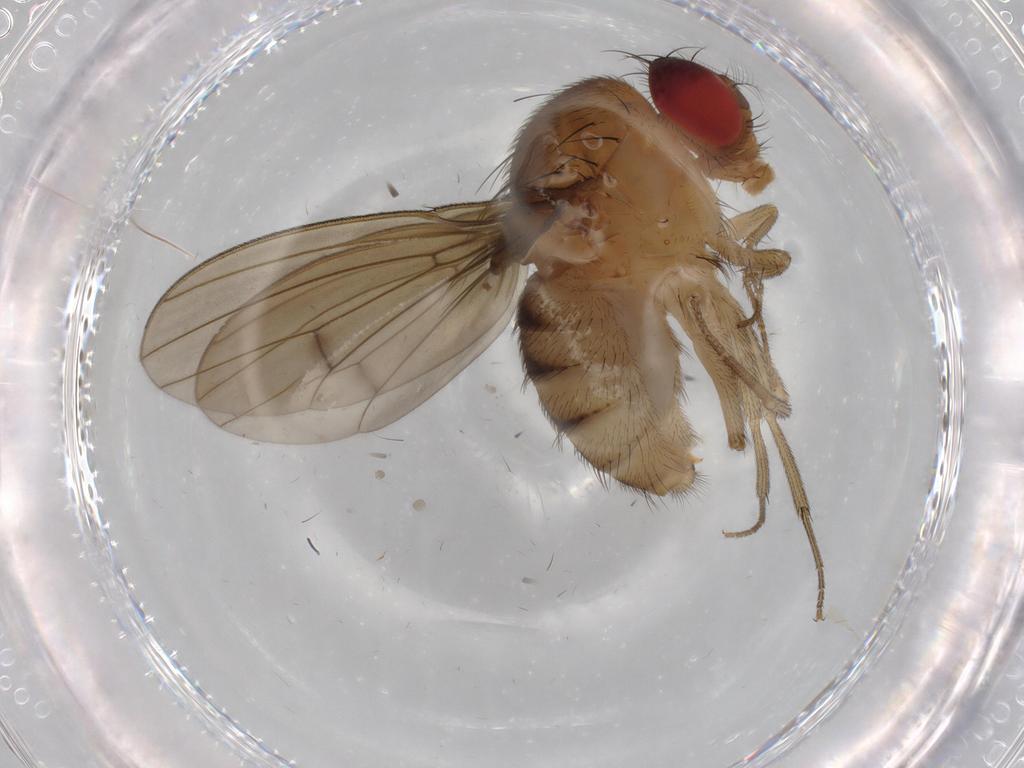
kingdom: Animalia
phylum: Arthropoda
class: Insecta
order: Diptera
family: Drosophilidae
